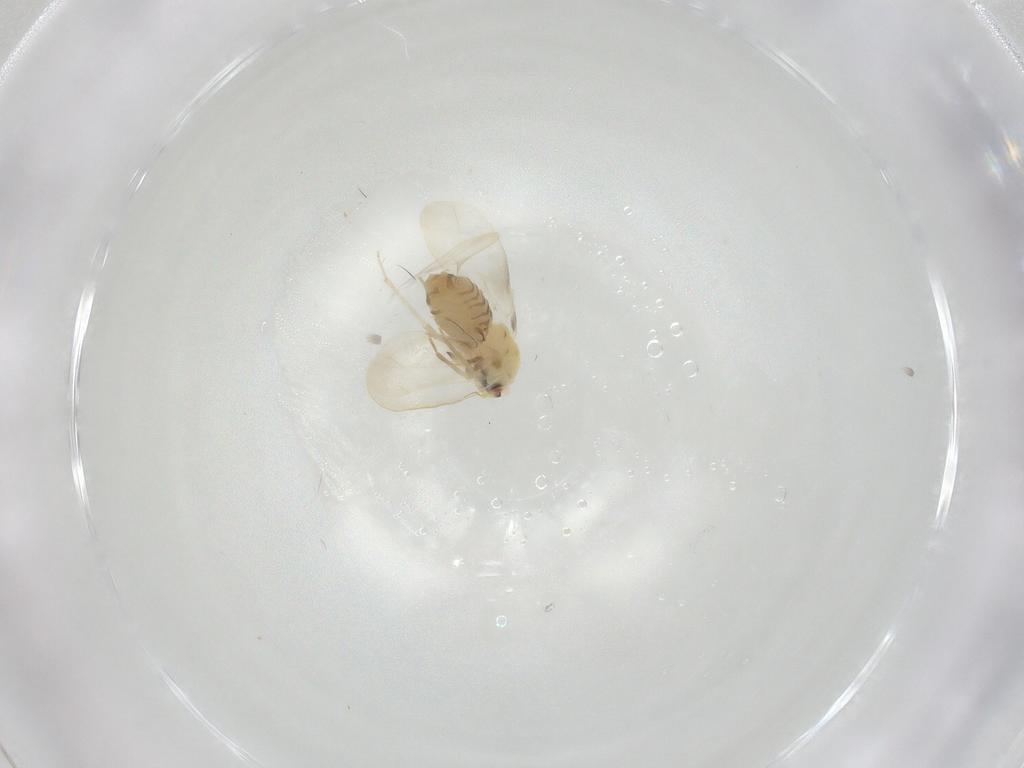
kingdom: Animalia
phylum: Arthropoda
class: Insecta
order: Hemiptera
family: Aleyrodidae
